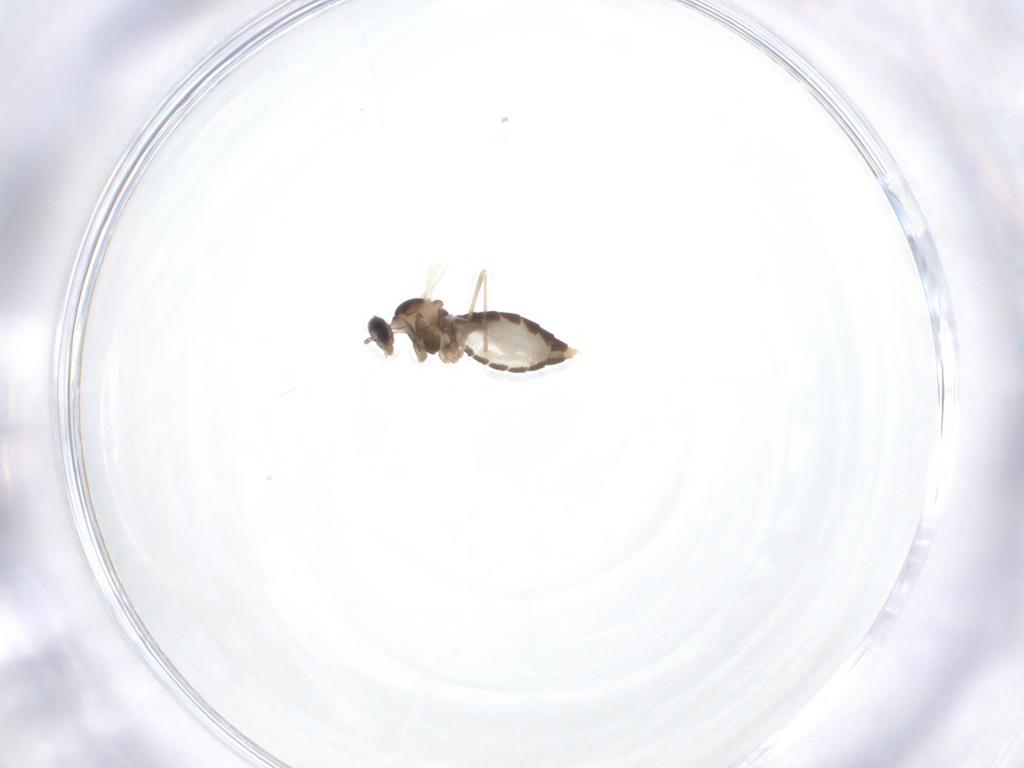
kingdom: Animalia
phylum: Arthropoda
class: Insecta
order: Diptera
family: Cecidomyiidae
